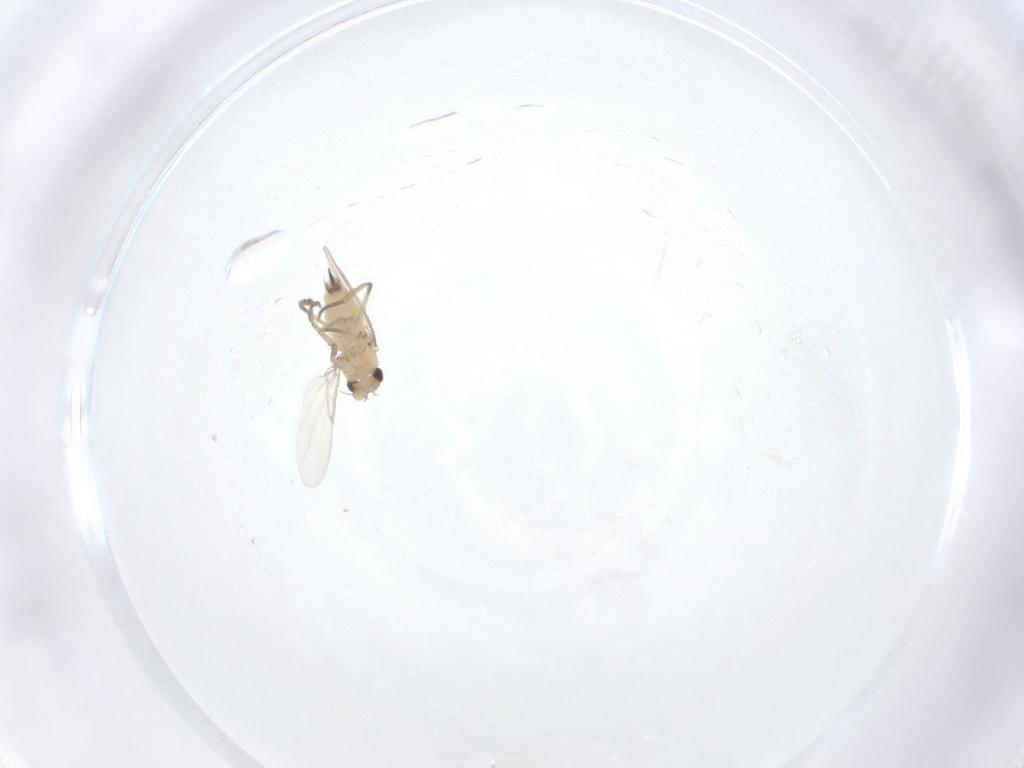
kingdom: Animalia
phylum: Arthropoda
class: Insecta
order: Diptera
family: Phoridae
